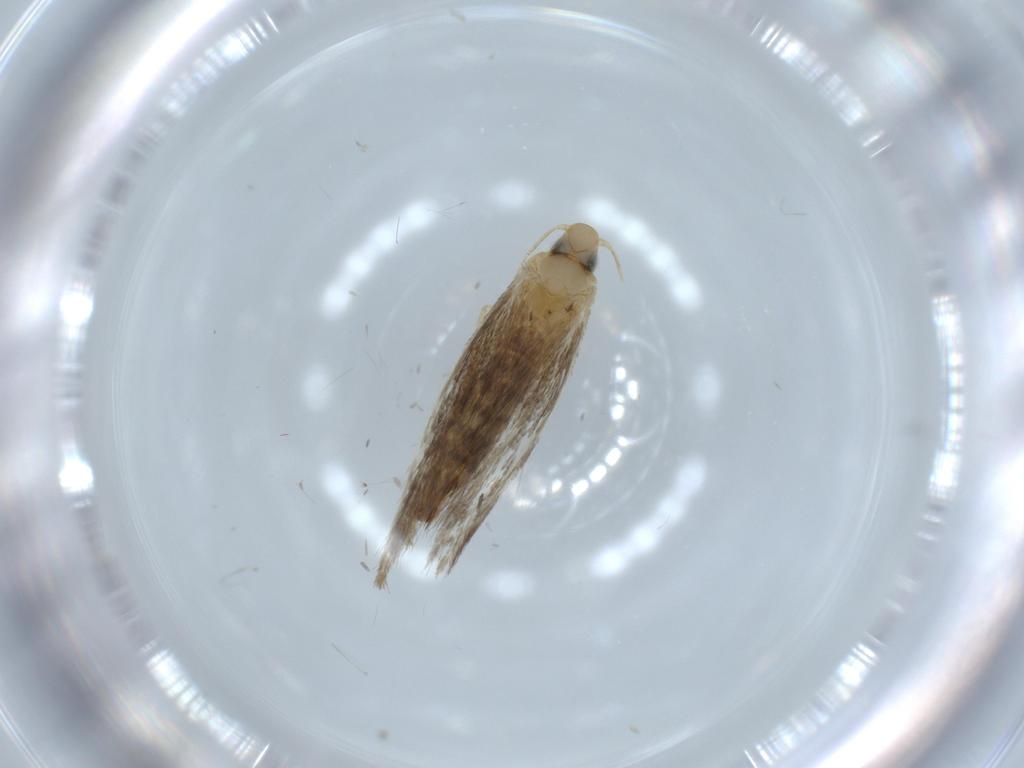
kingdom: Animalia
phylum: Arthropoda
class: Insecta
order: Lepidoptera
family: Tischeriidae
